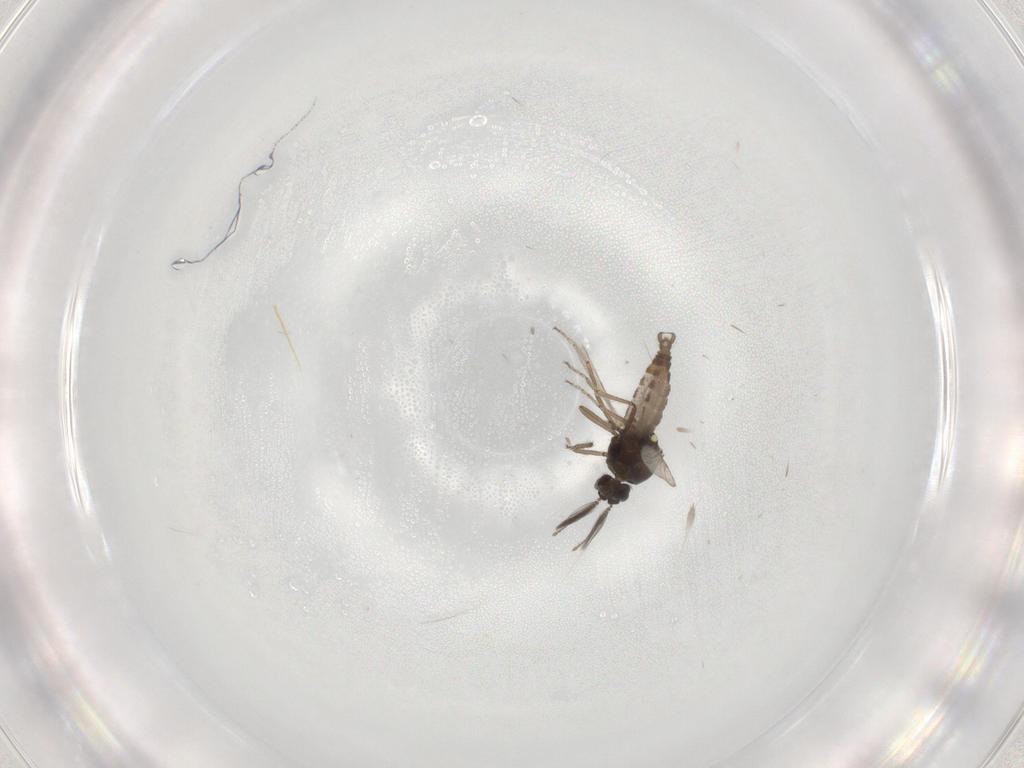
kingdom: Animalia
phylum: Arthropoda
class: Insecta
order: Diptera
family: Ceratopogonidae
